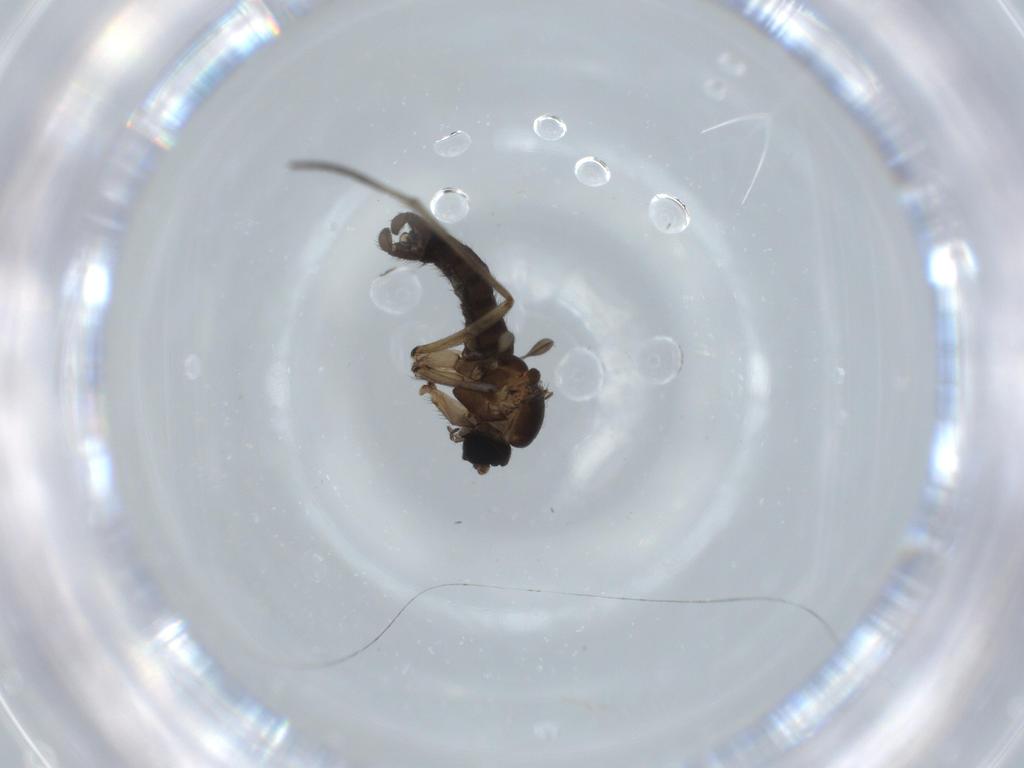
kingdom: Animalia
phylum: Arthropoda
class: Insecta
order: Diptera
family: Sciaridae
